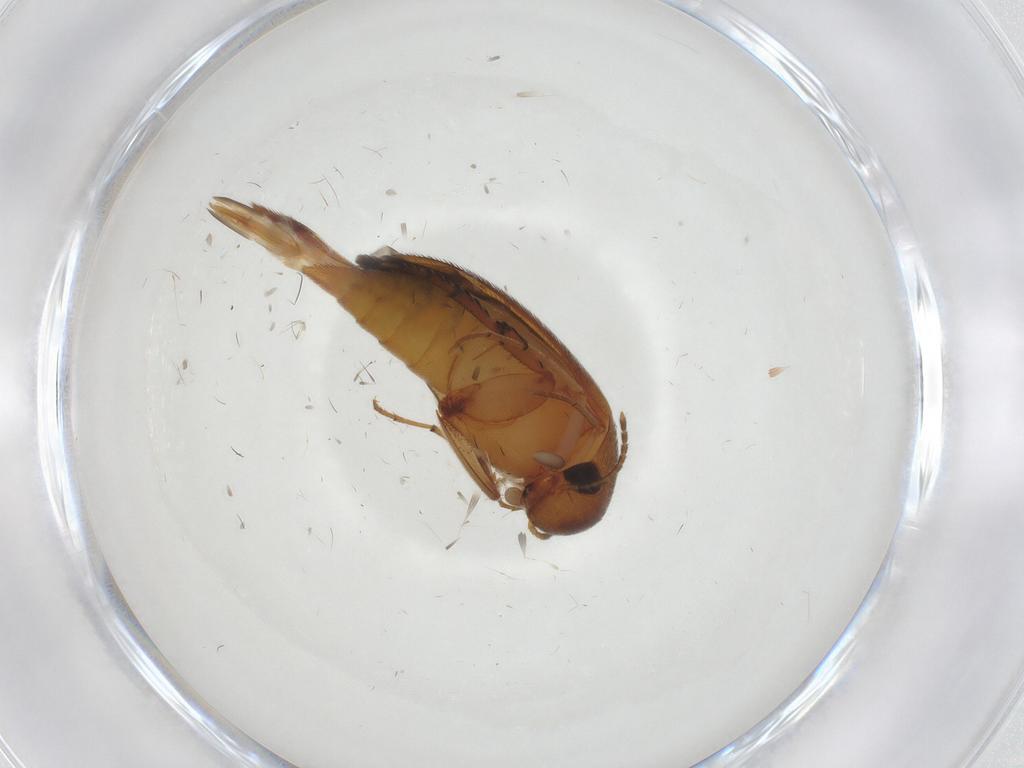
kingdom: Animalia
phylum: Arthropoda
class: Insecta
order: Coleoptera
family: Mordellidae
